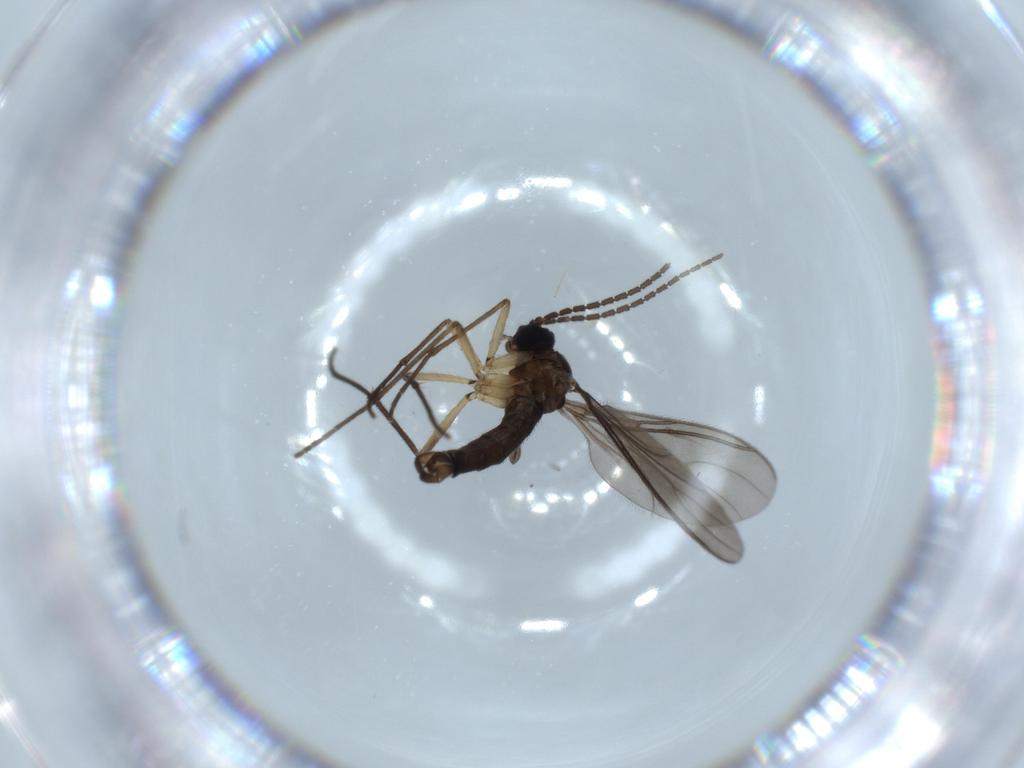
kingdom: Animalia
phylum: Arthropoda
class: Insecta
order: Diptera
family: Sciaridae
